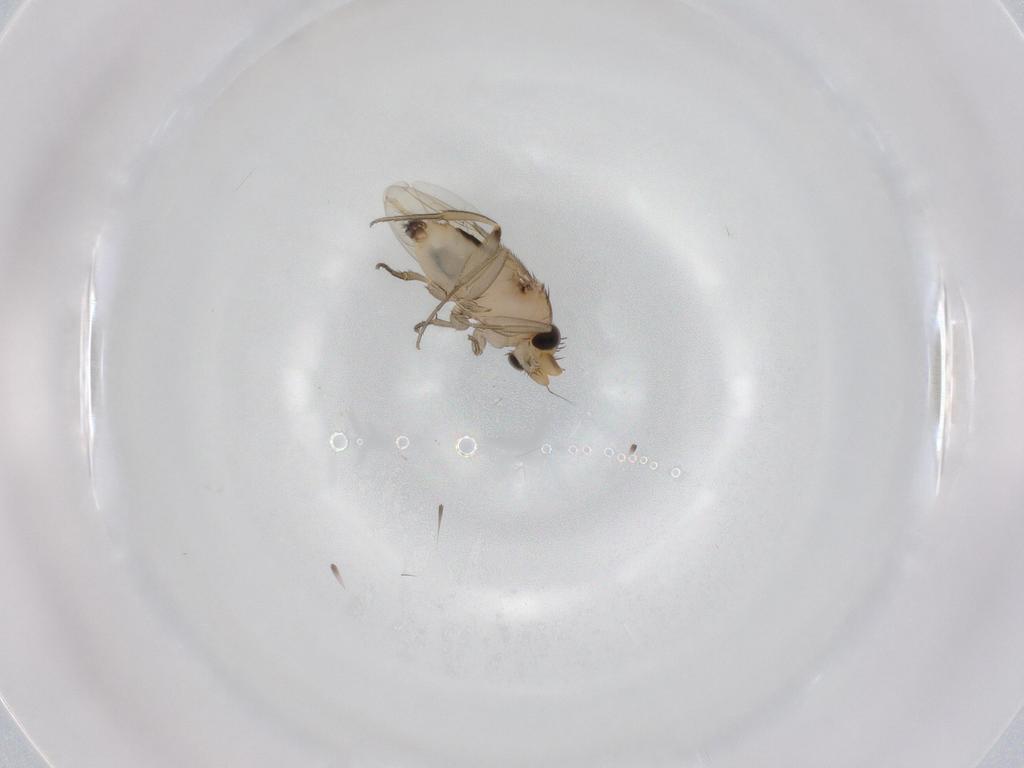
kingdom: Animalia
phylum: Arthropoda
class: Insecta
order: Diptera
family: Phoridae
